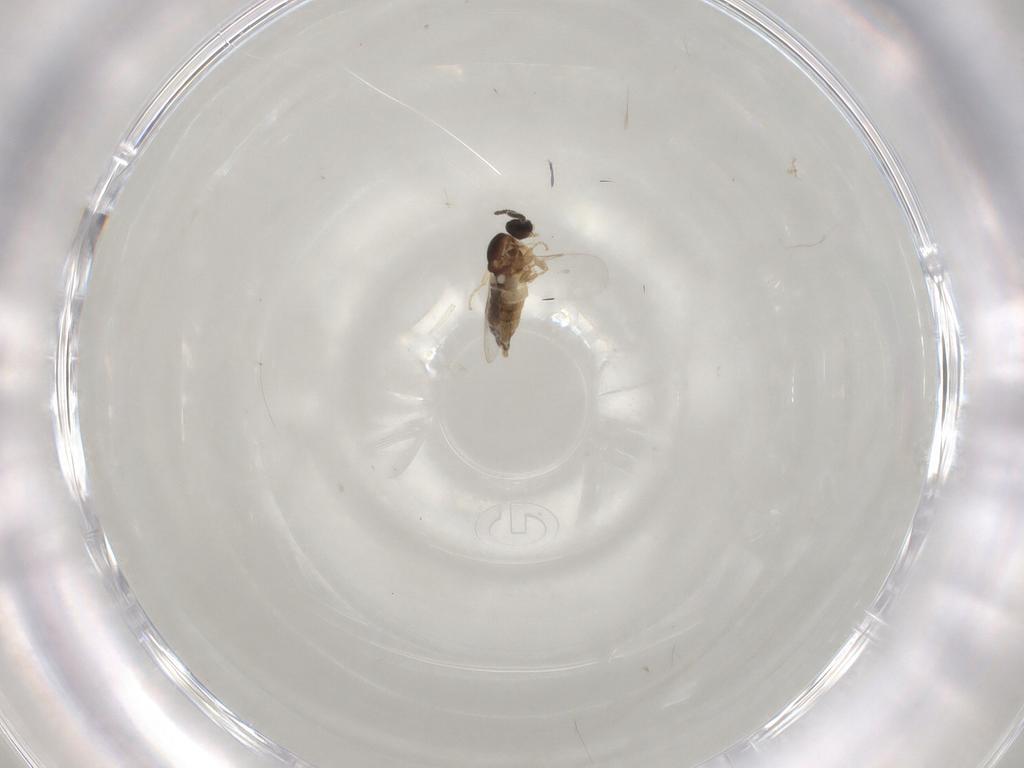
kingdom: Animalia
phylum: Arthropoda
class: Insecta
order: Diptera
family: Scatopsidae
